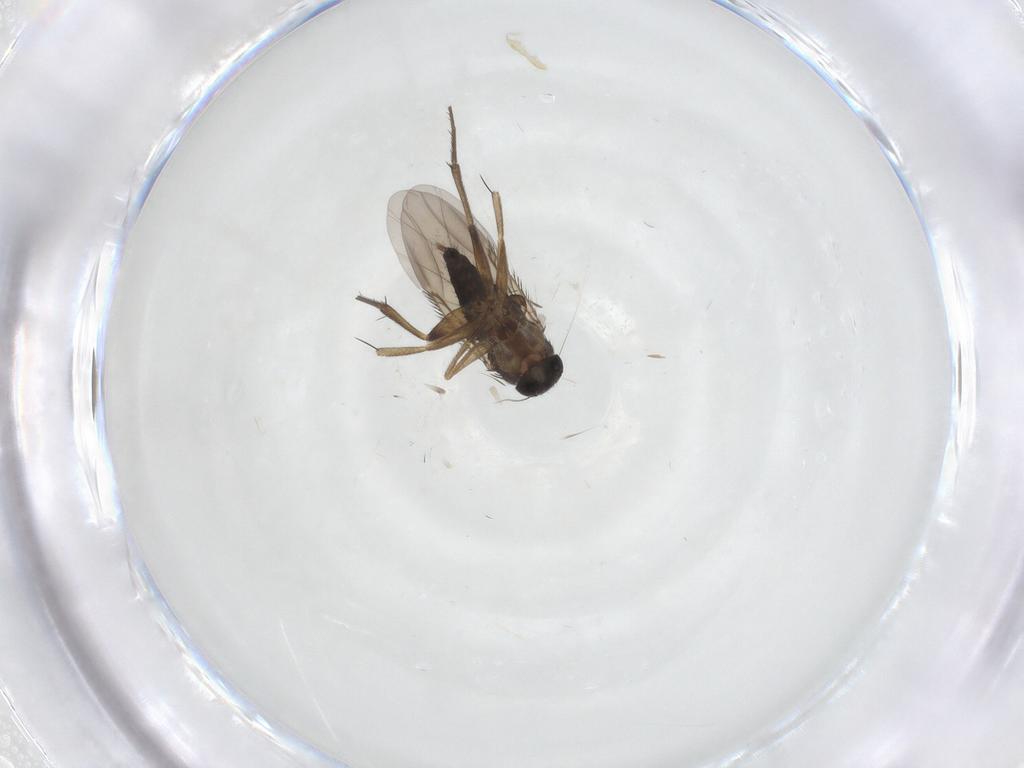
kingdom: Animalia
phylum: Arthropoda
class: Insecta
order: Diptera
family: Phoridae
